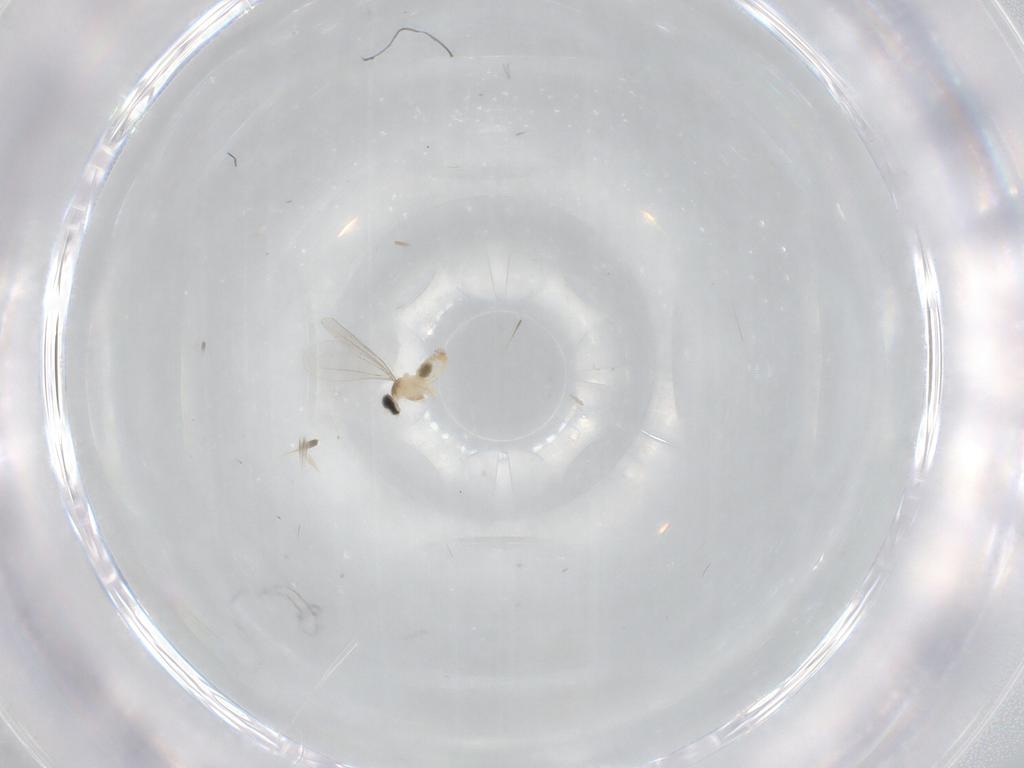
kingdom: Animalia
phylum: Arthropoda
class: Insecta
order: Diptera
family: Cecidomyiidae
